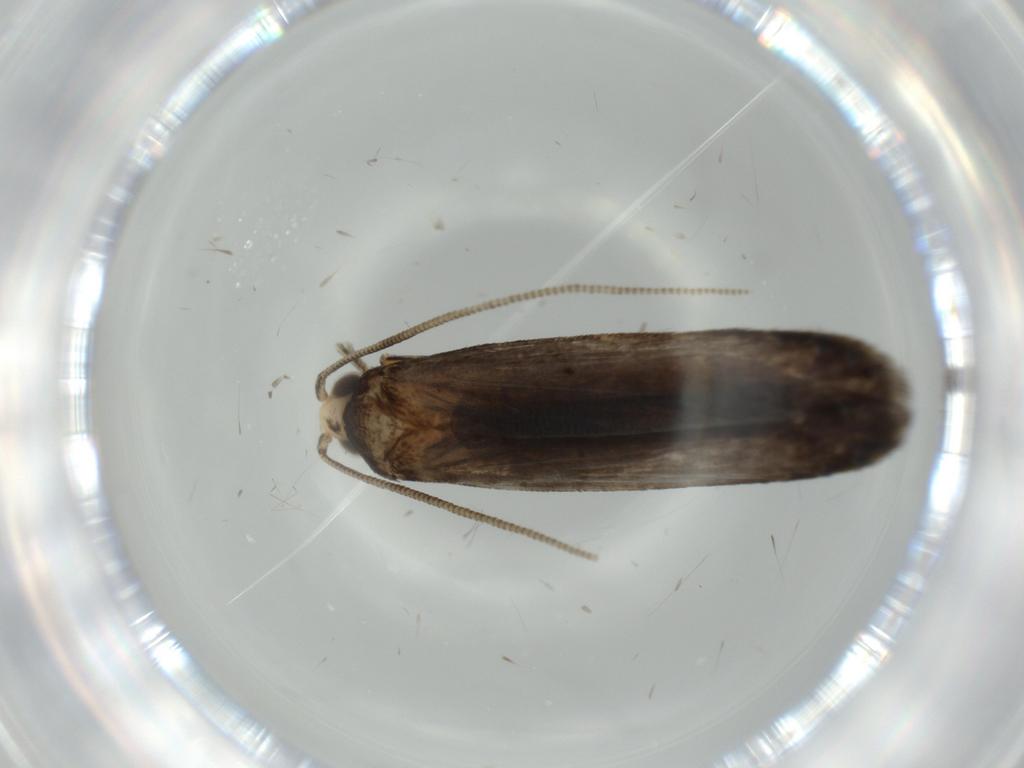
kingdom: Animalia
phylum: Arthropoda
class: Insecta
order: Lepidoptera
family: Tineidae
